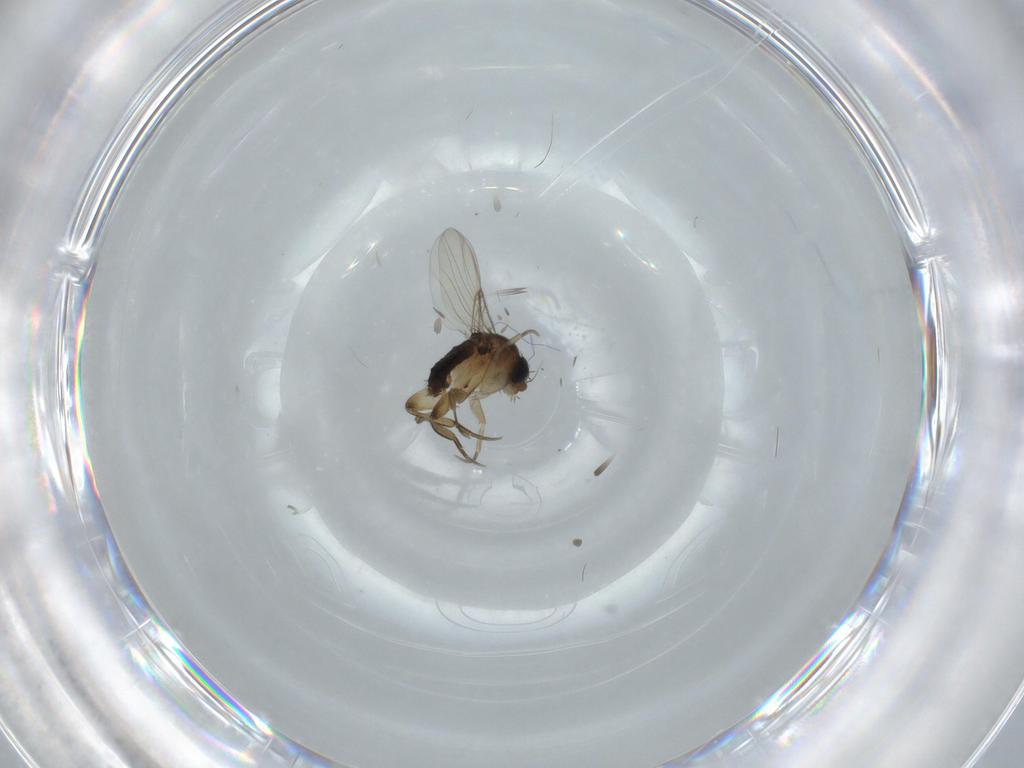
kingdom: Animalia
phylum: Arthropoda
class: Insecta
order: Diptera
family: Phoridae
